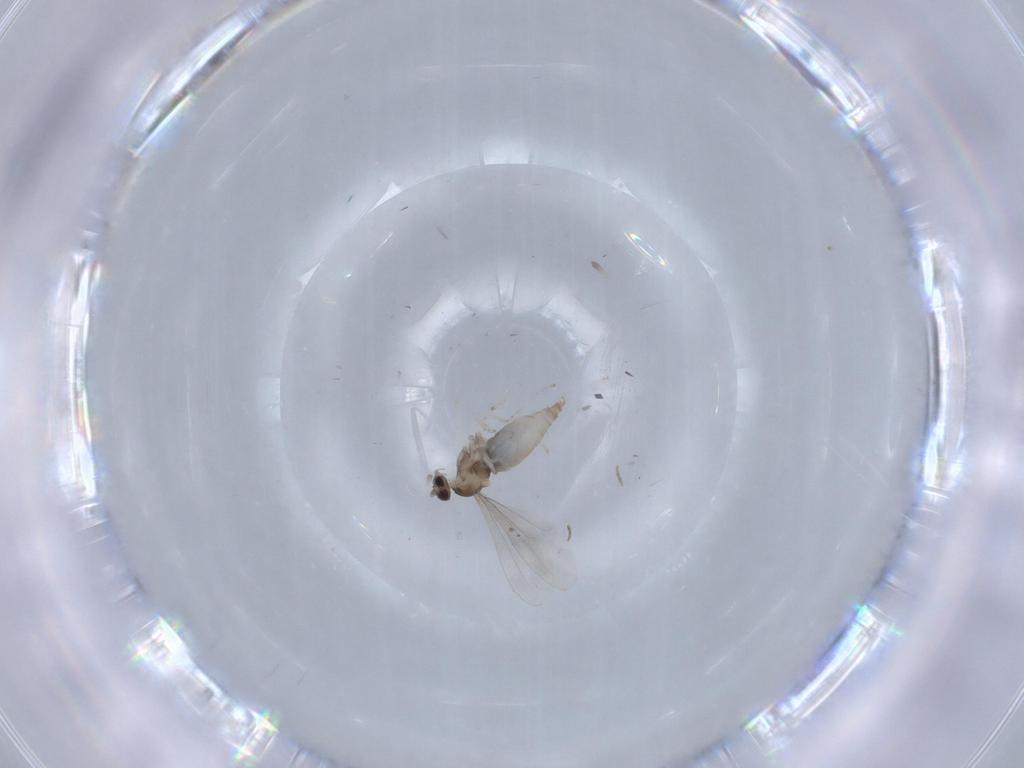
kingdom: Animalia
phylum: Arthropoda
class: Insecta
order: Diptera
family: Cecidomyiidae
